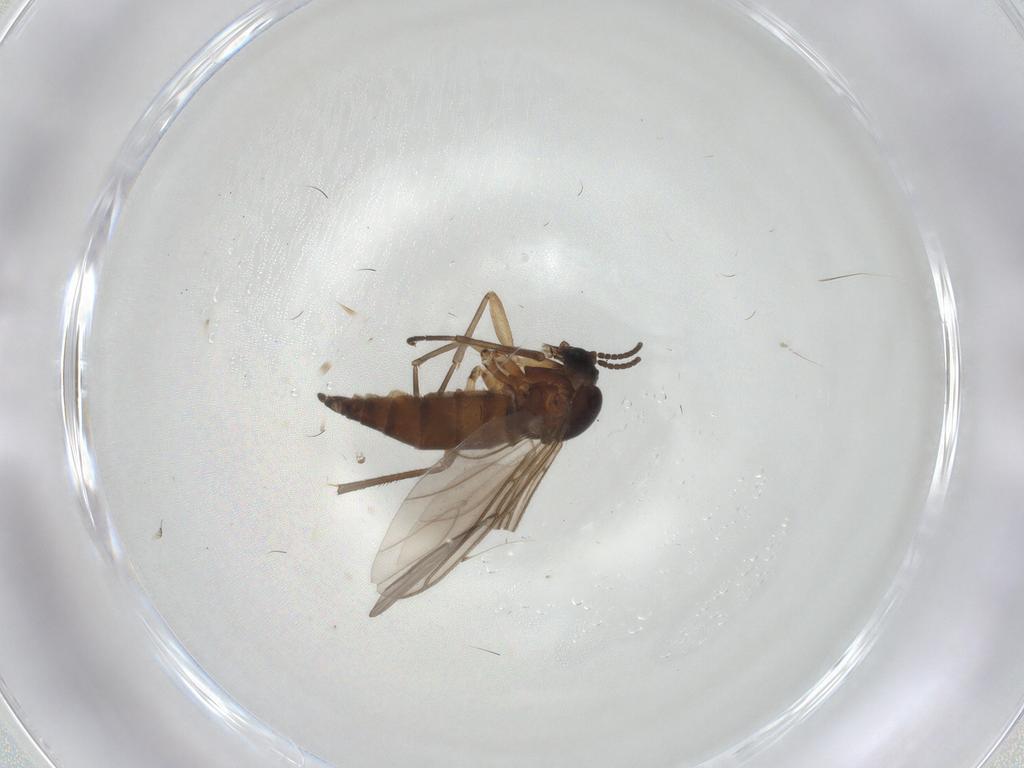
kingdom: Animalia
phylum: Arthropoda
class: Insecta
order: Diptera
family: Sciaridae
